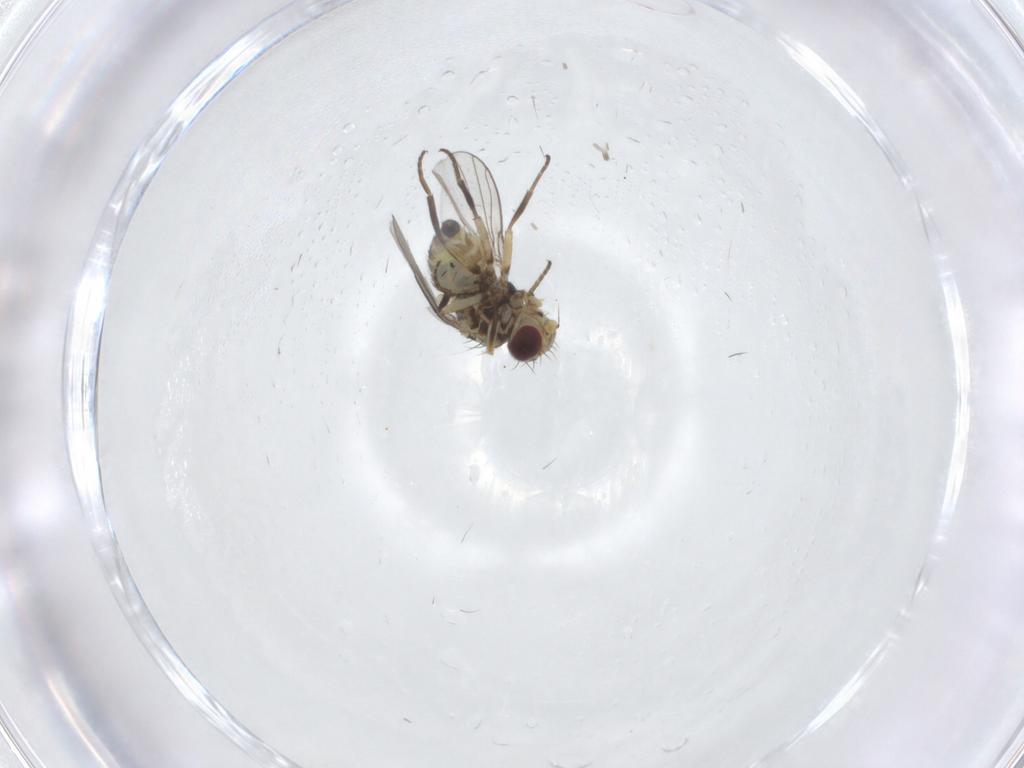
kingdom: Animalia
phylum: Arthropoda
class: Insecta
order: Diptera
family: Agromyzidae
